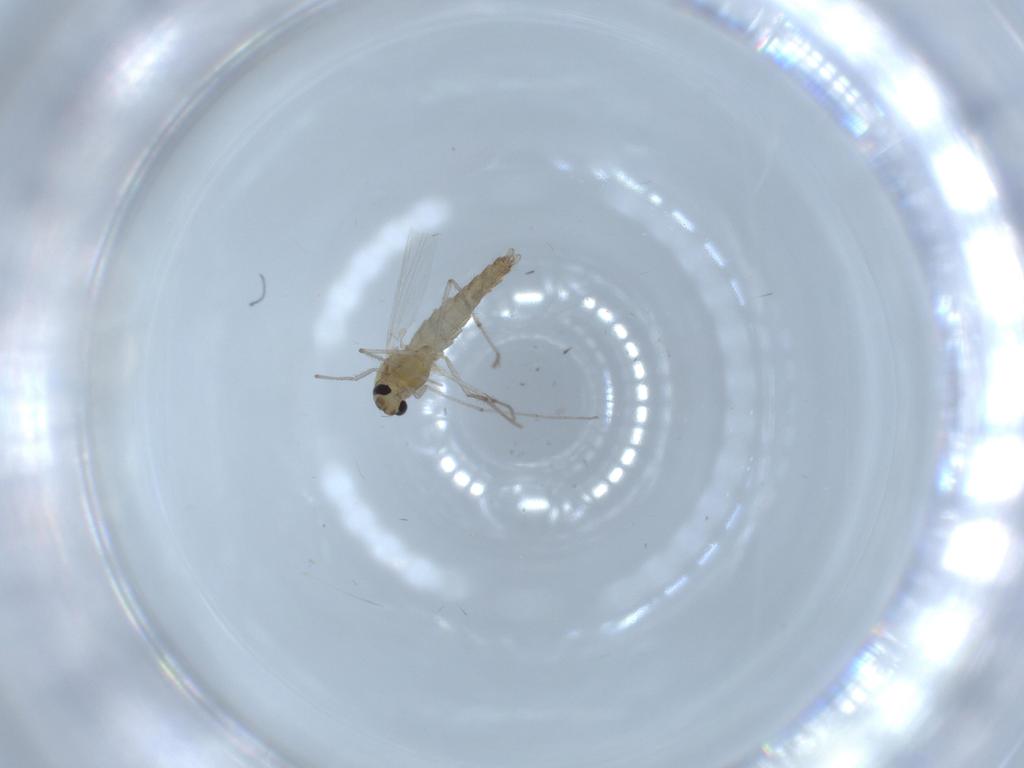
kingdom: Animalia
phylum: Arthropoda
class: Insecta
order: Diptera
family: Chironomidae
